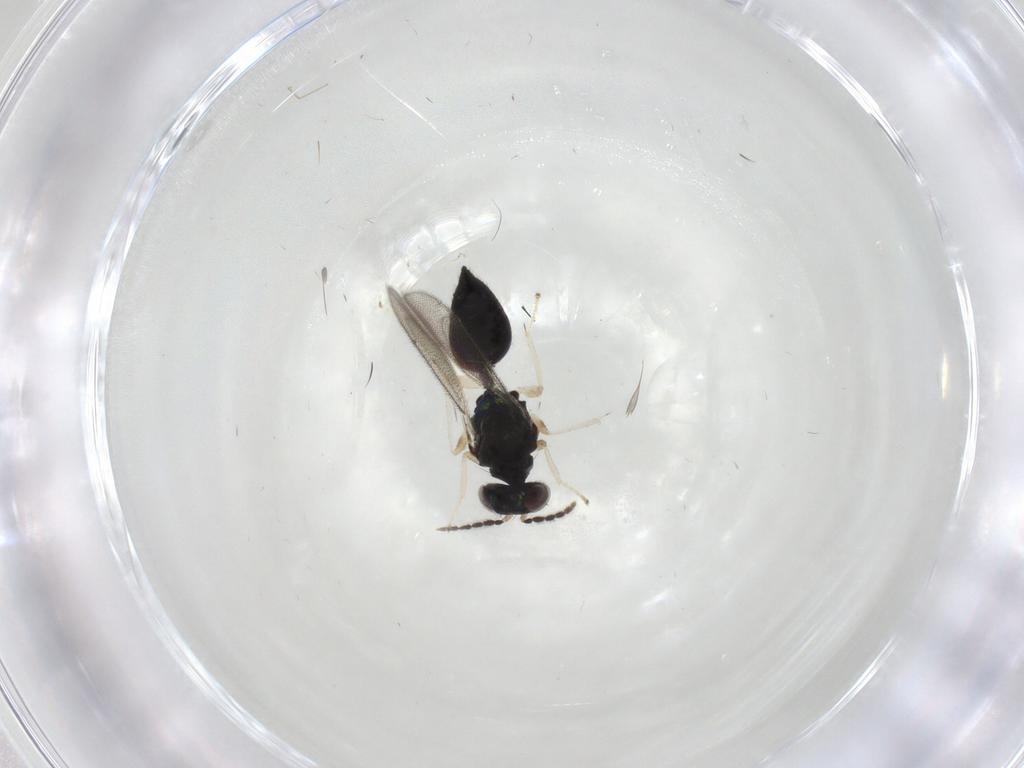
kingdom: Animalia
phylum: Arthropoda
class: Insecta
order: Hymenoptera
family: Eulophidae
